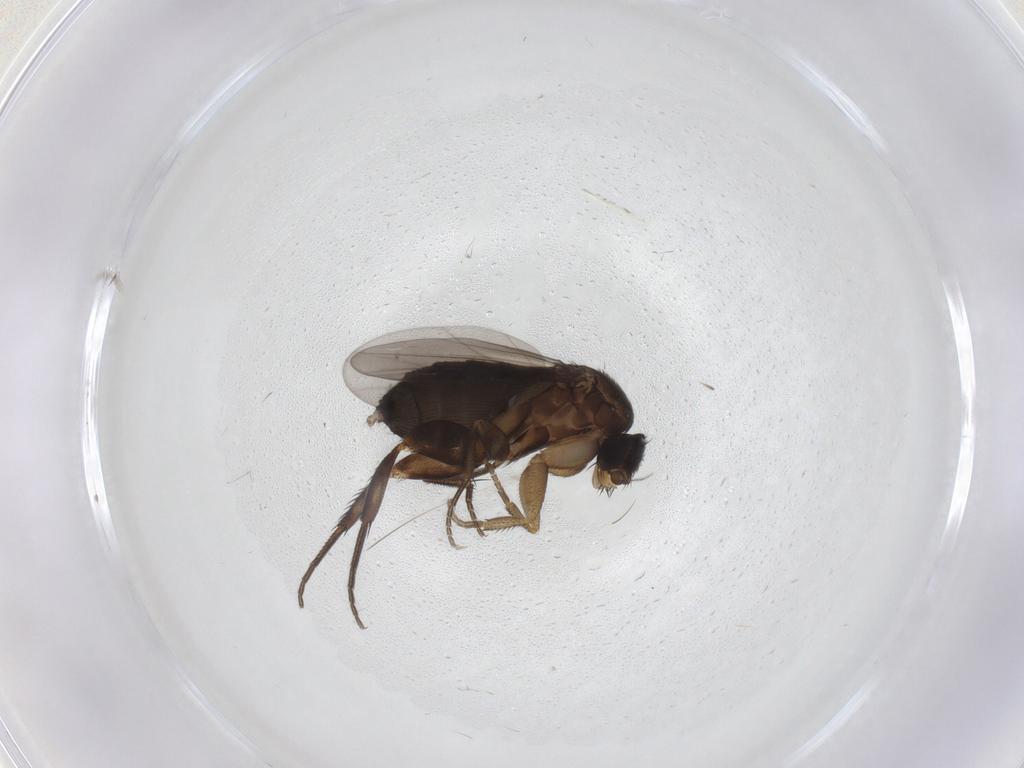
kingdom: Animalia
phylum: Arthropoda
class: Insecta
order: Diptera
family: Phoridae
